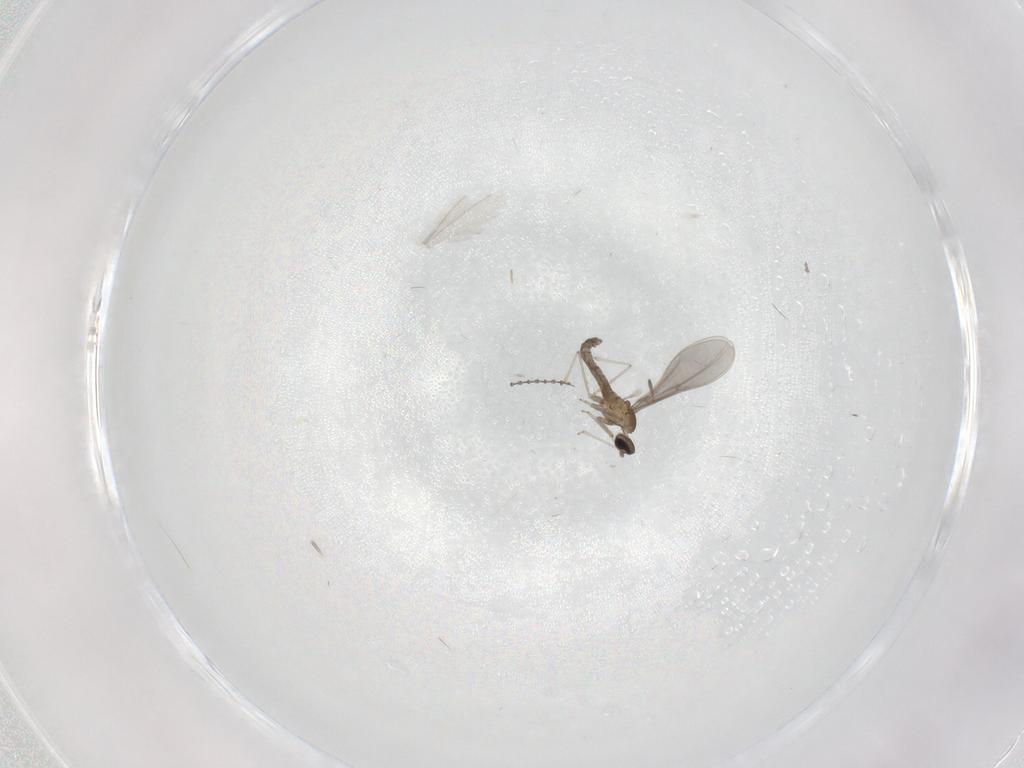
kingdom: Animalia
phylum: Arthropoda
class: Insecta
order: Diptera
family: Cecidomyiidae
